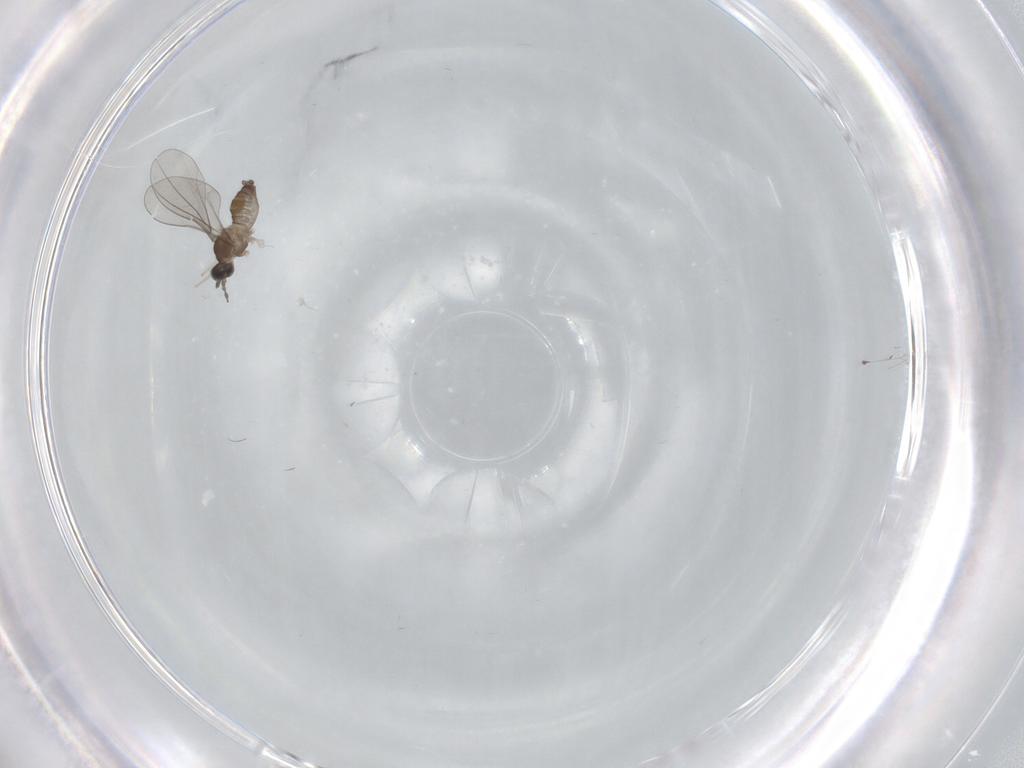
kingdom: Animalia
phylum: Arthropoda
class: Insecta
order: Diptera
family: Cecidomyiidae
